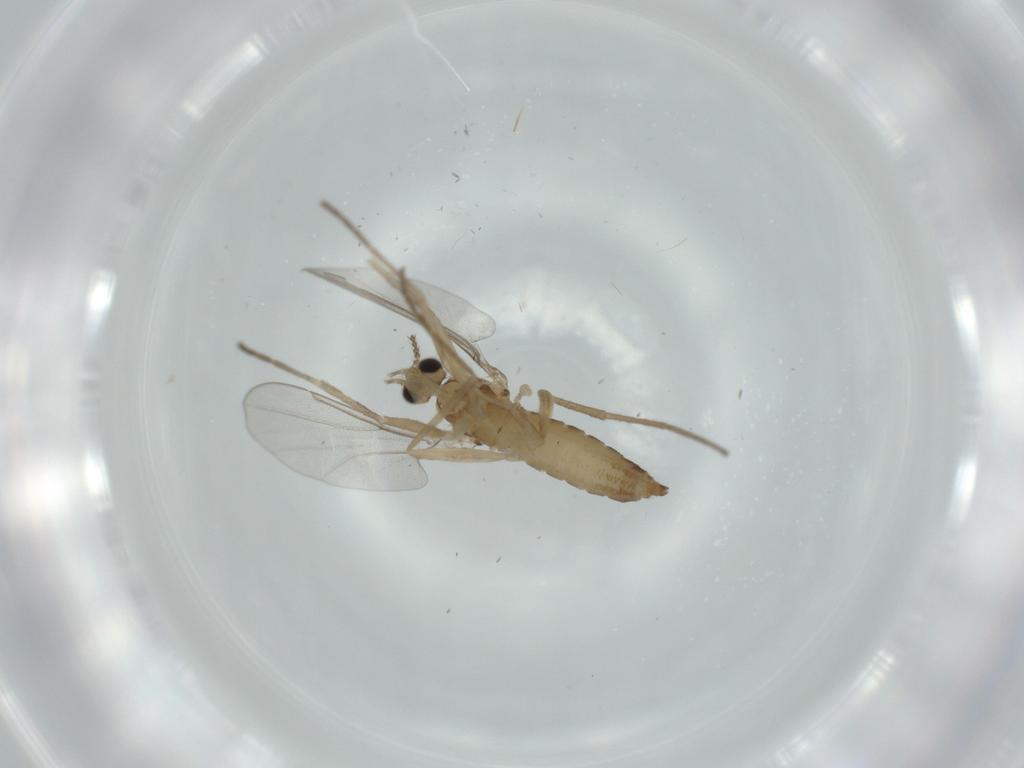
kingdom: Animalia
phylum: Arthropoda
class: Insecta
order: Diptera
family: Cecidomyiidae
